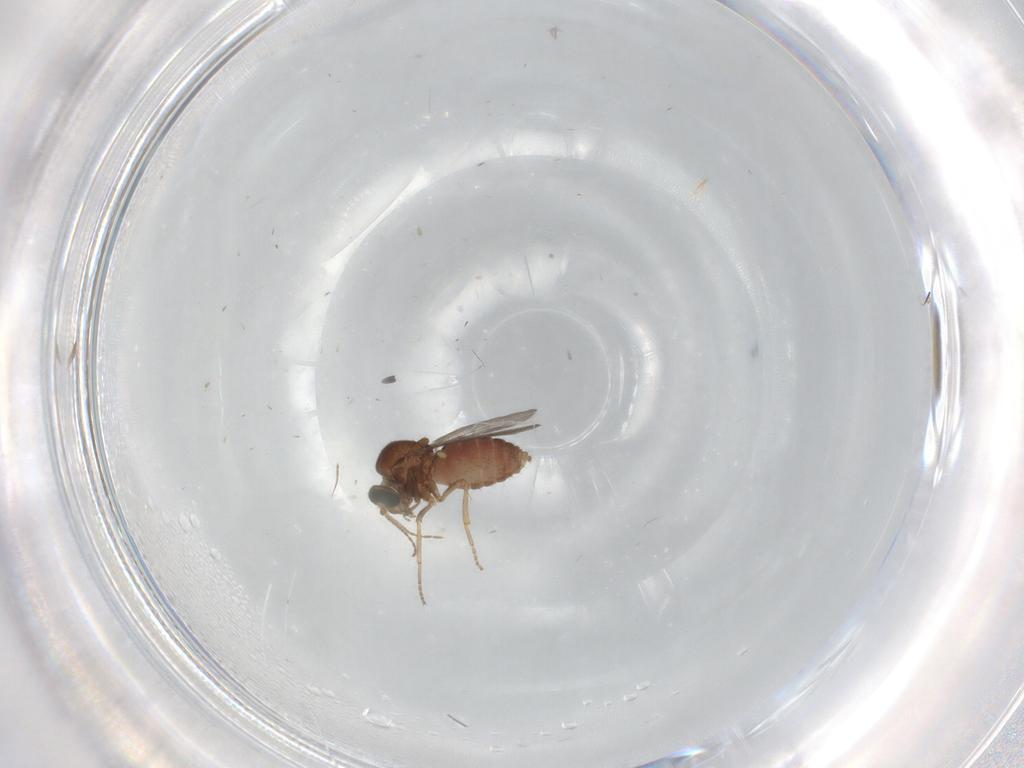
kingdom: Animalia
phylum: Arthropoda
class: Insecta
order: Diptera
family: Ceratopogonidae
